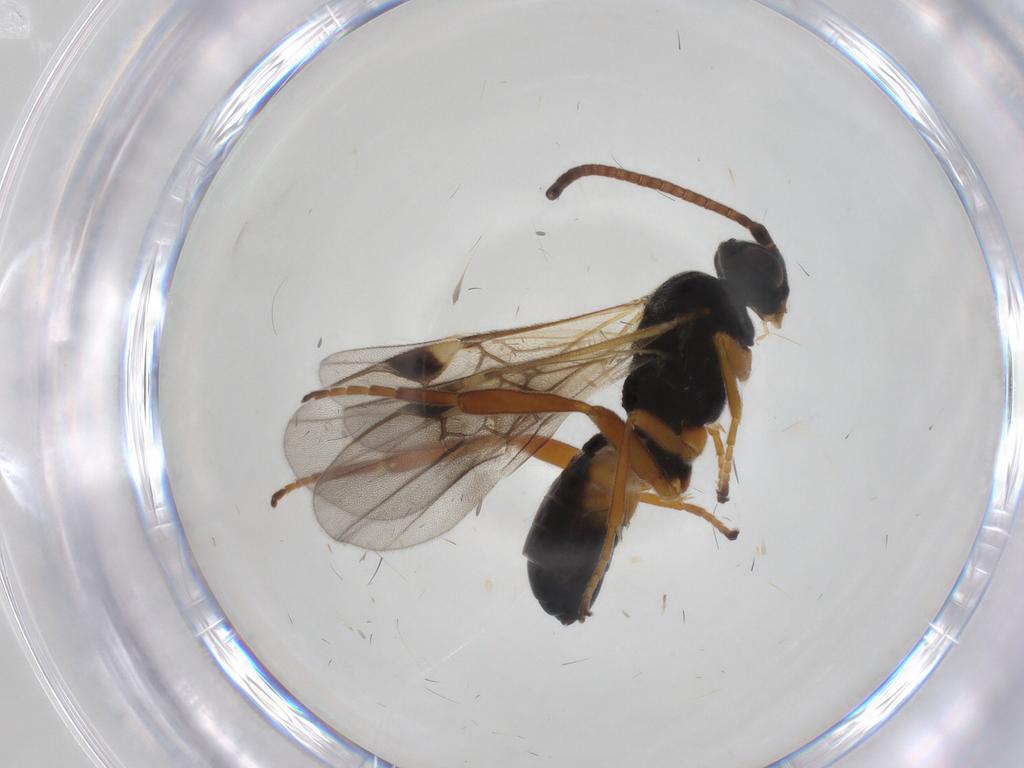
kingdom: Animalia
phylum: Arthropoda
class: Insecta
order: Hymenoptera
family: Braconidae
